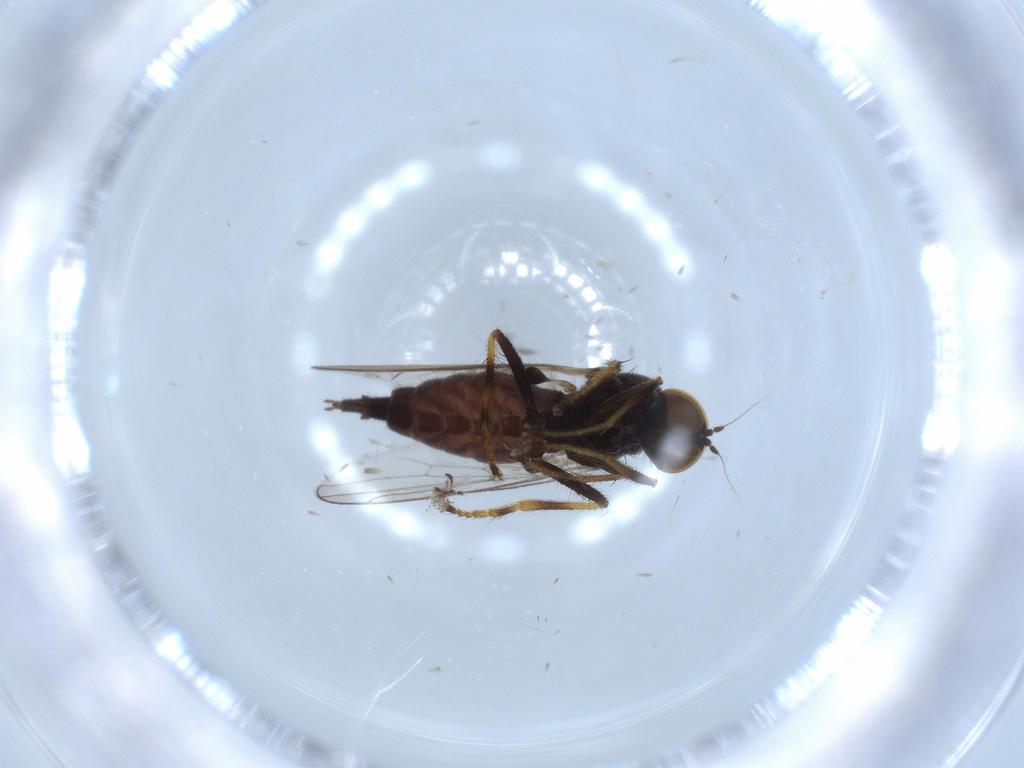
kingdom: Animalia
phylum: Arthropoda
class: Insecta
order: Diptera
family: Hybotidae
